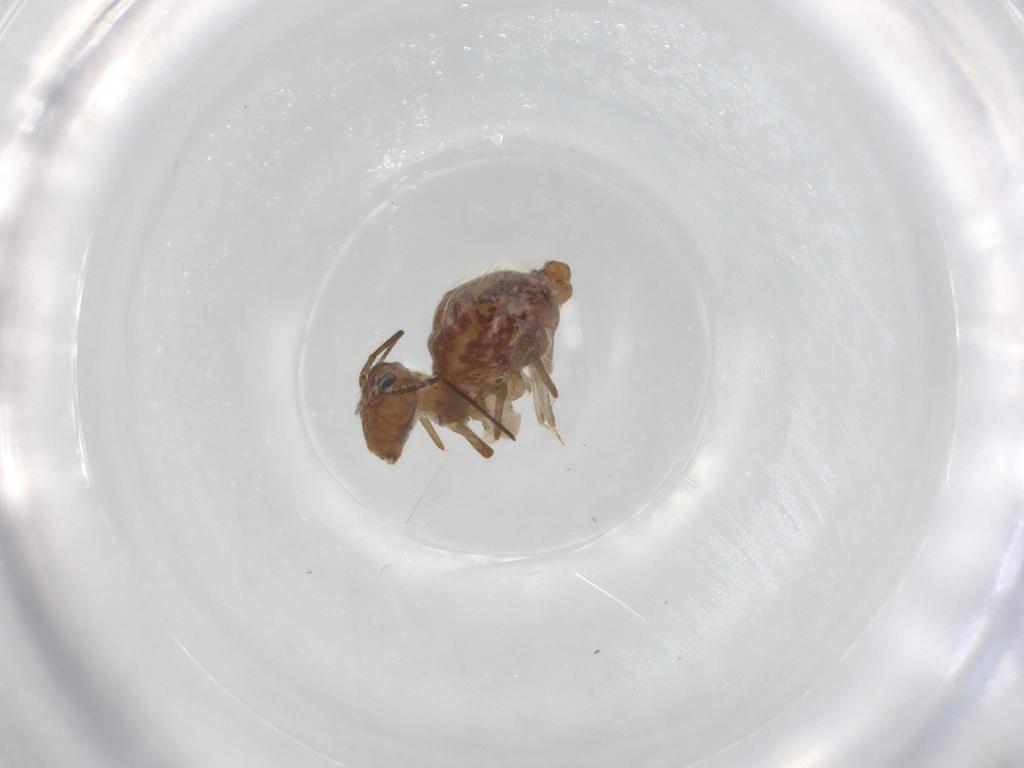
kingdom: Animalia
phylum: Arthropoda
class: Collembola
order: Symphypleona
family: Sminthuridae
